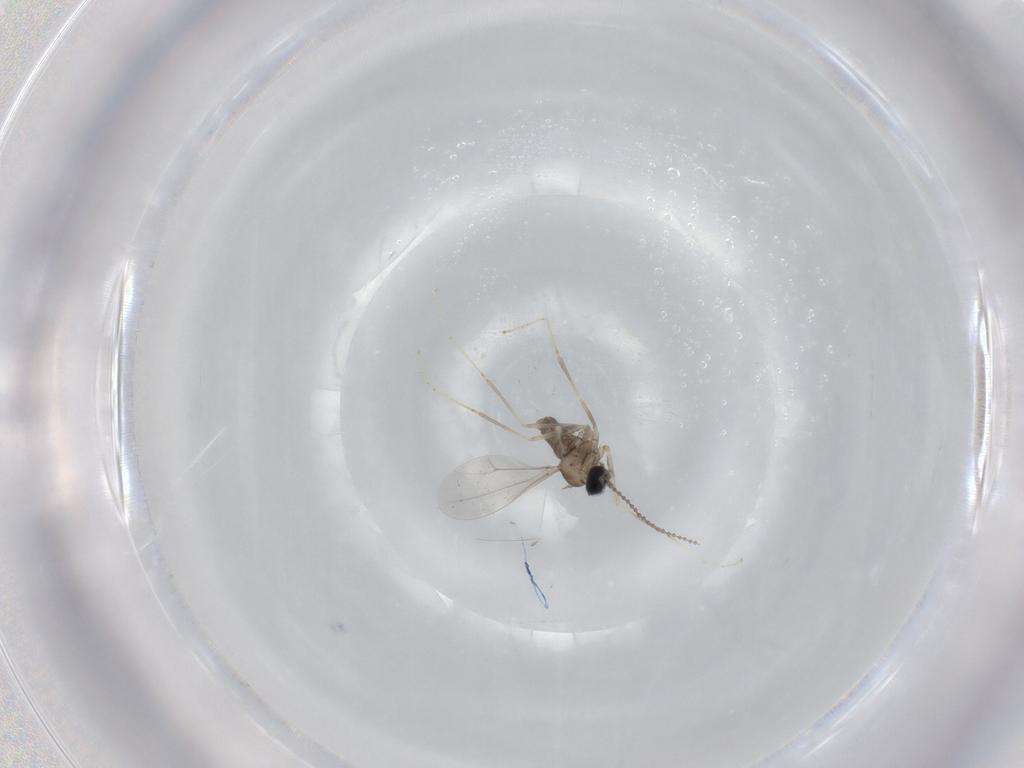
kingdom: Animalia
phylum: Arthropoda
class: Insecta
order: Diptera
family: Cecidomyiidae
